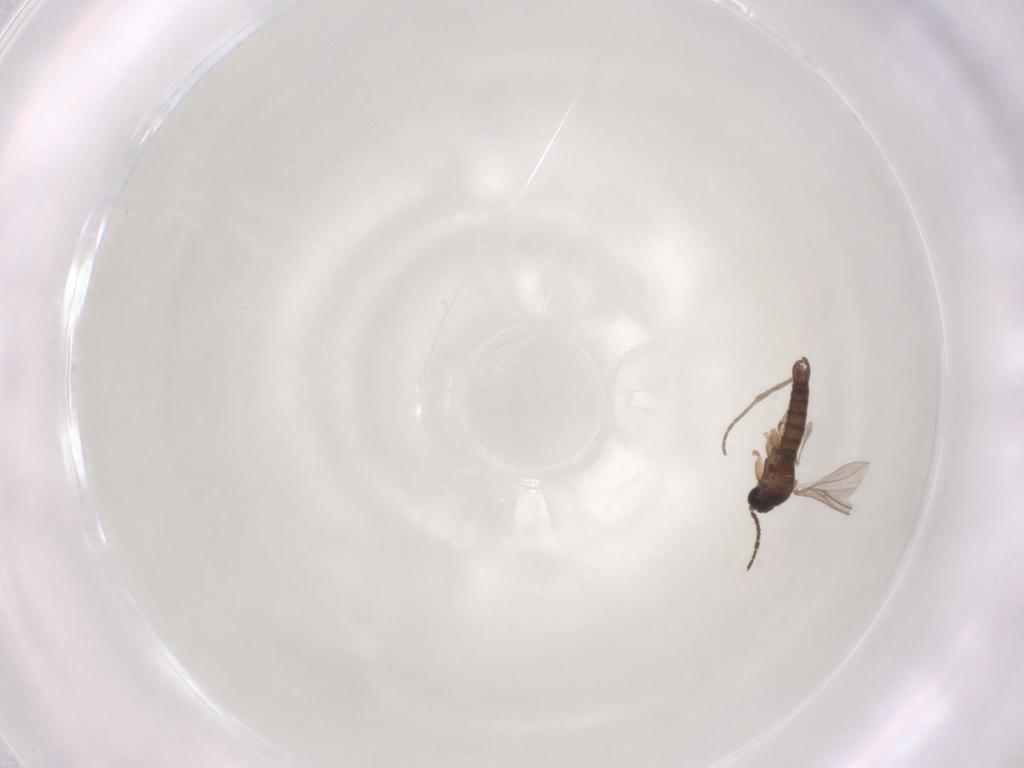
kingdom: Animalia
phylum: Arthropoda
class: Insecta
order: Diptera
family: Sciaridae
